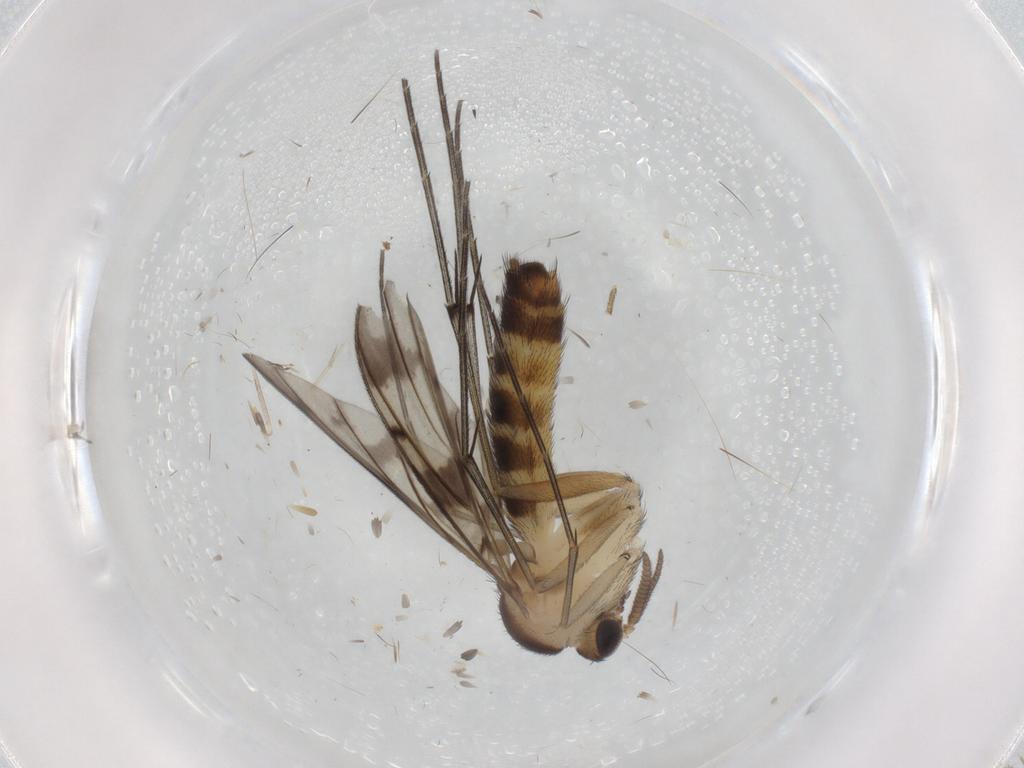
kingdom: Animalia
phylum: Arthropoda
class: Insecta
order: Diptera
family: Keroplatidae
